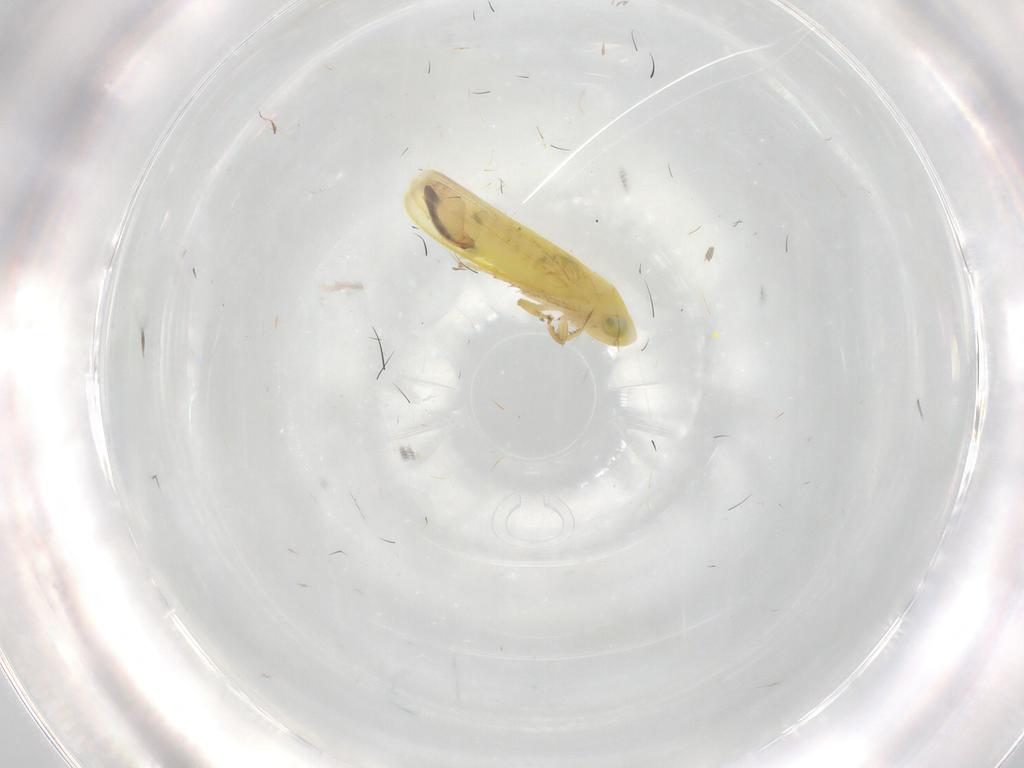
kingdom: Animalia
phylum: Arthropoda
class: Insecta
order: Hemiptera
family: Cicadellidae
